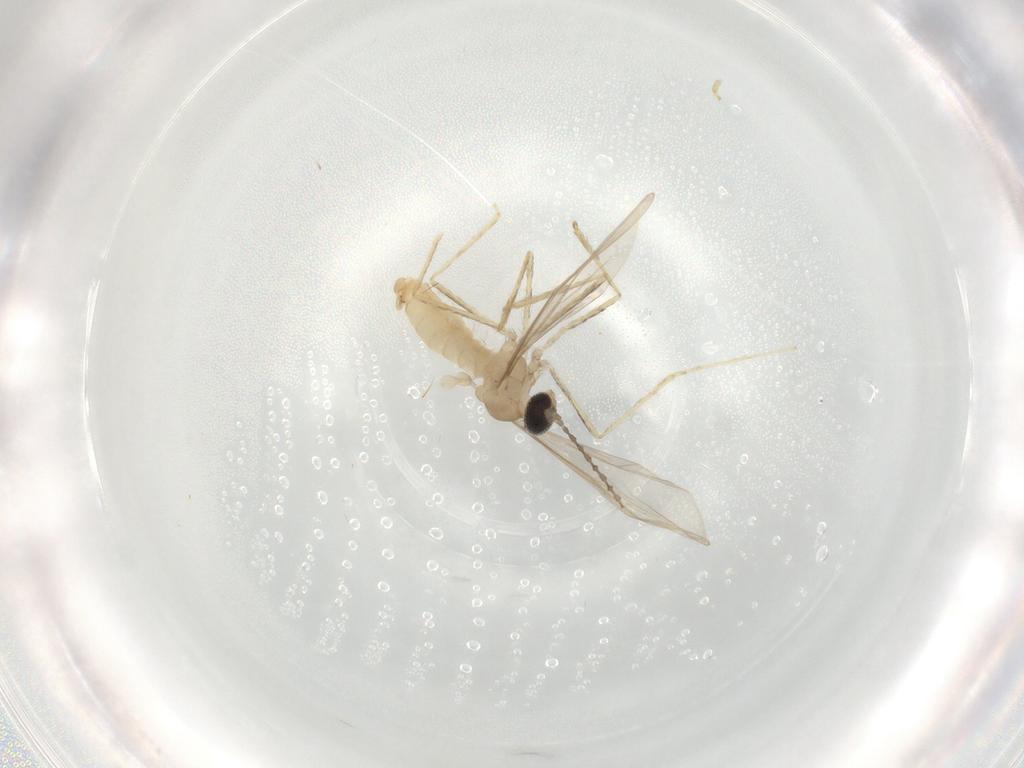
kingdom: Animalia
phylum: Arthropoda
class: Insecta
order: Diptera
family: Cecidomyiidae
